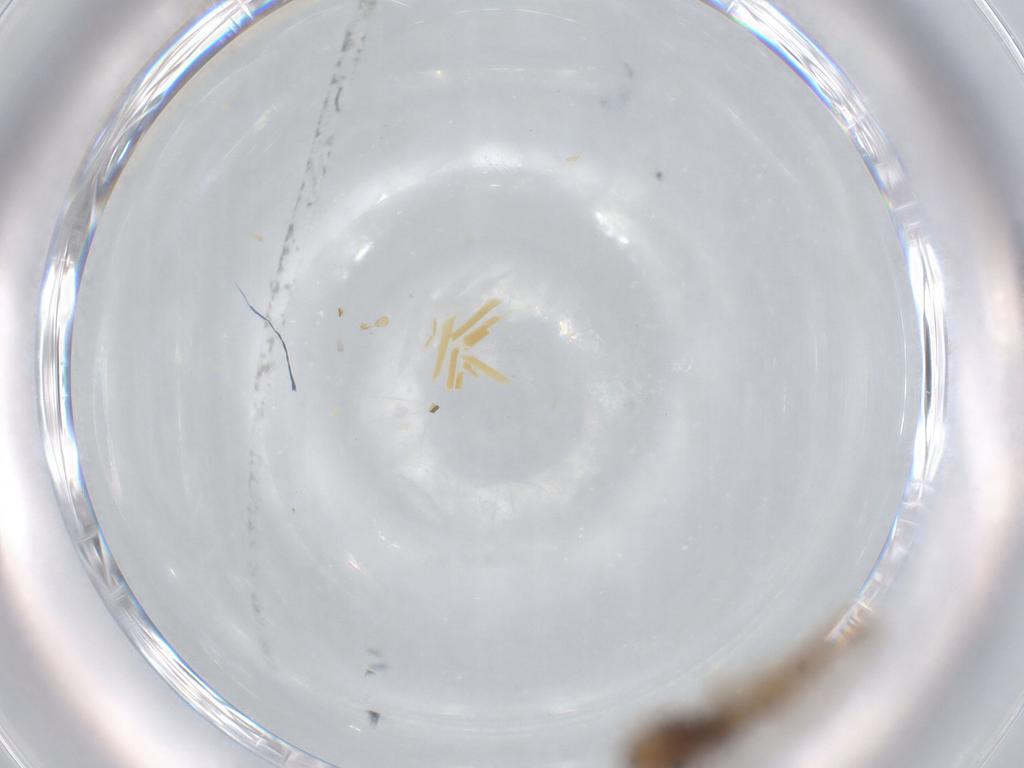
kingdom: Animalia
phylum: Arthropoda
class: Insecta
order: Diptera
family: Chironomidae
